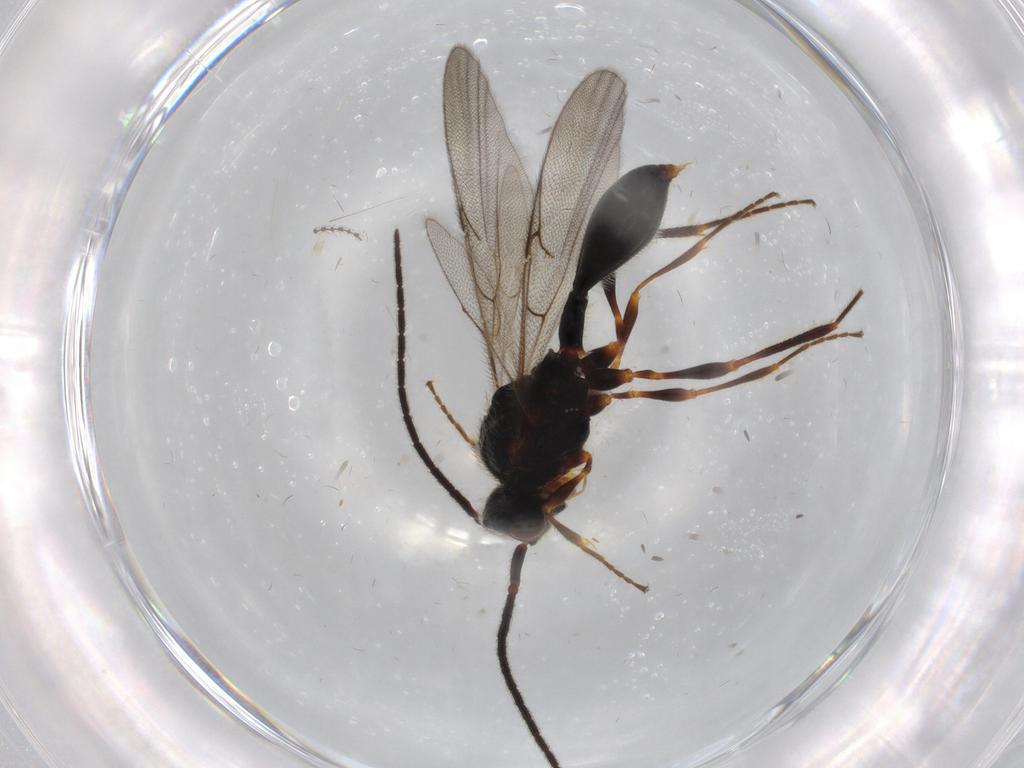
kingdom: Animalia
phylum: Arthropoda
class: Insecta
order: Hymenoptera
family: Diapriidae
